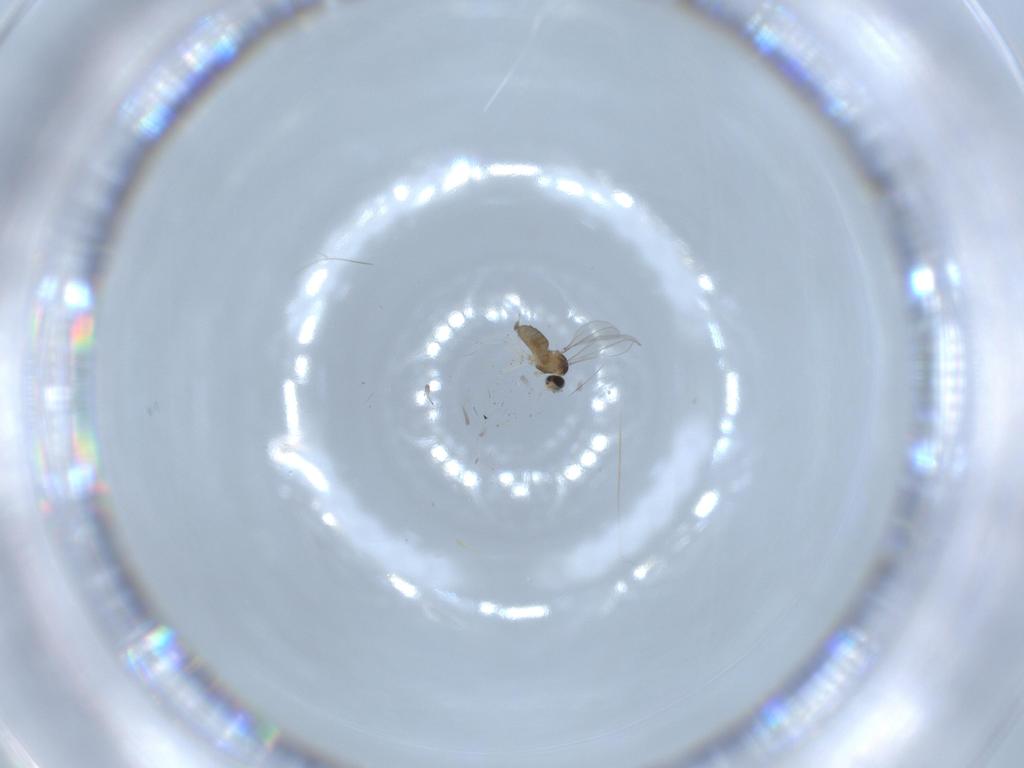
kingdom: Animalia
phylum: Arthropoda
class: Insecta
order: Diptera
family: Cecidomyiidae
